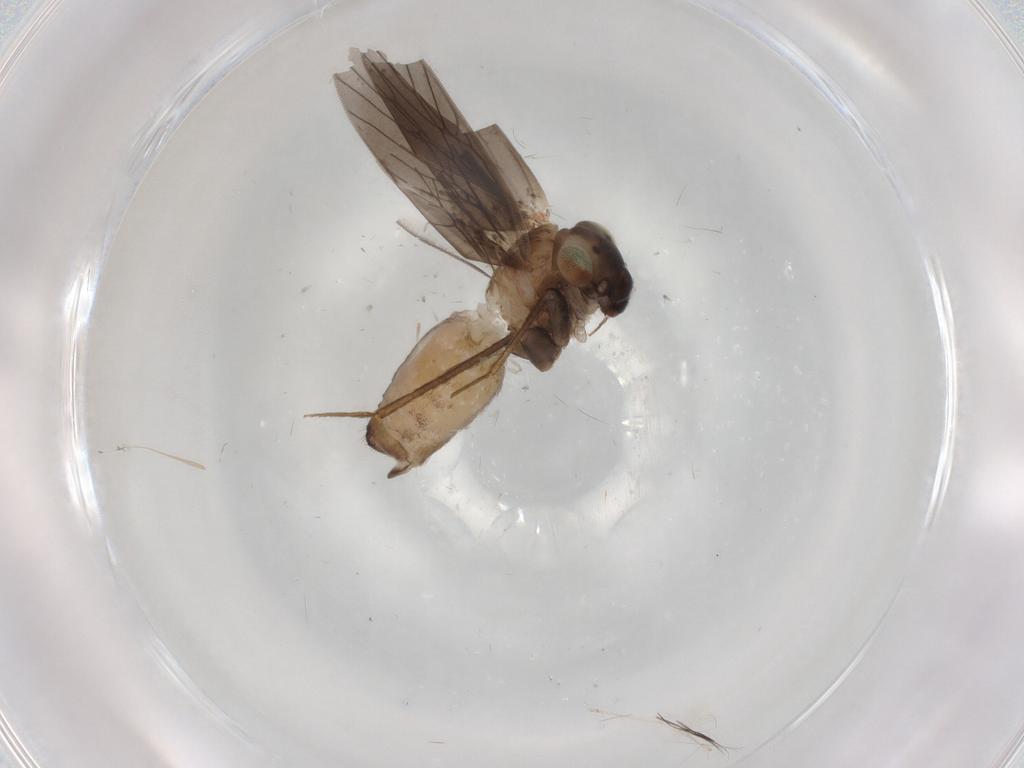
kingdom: Animalia
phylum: Arthropoda
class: Insecta
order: Psocodea
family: Lepidopsocidae
